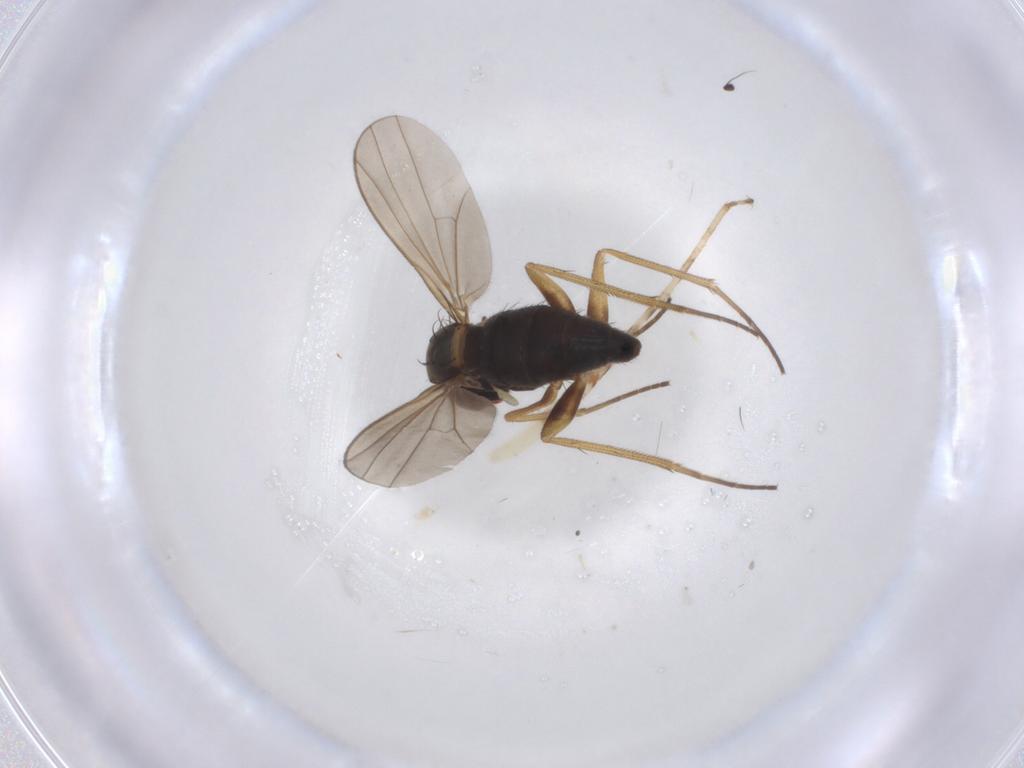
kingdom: Animalia
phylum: Arthropoda
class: Insecta
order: Diptera
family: Phoridae
